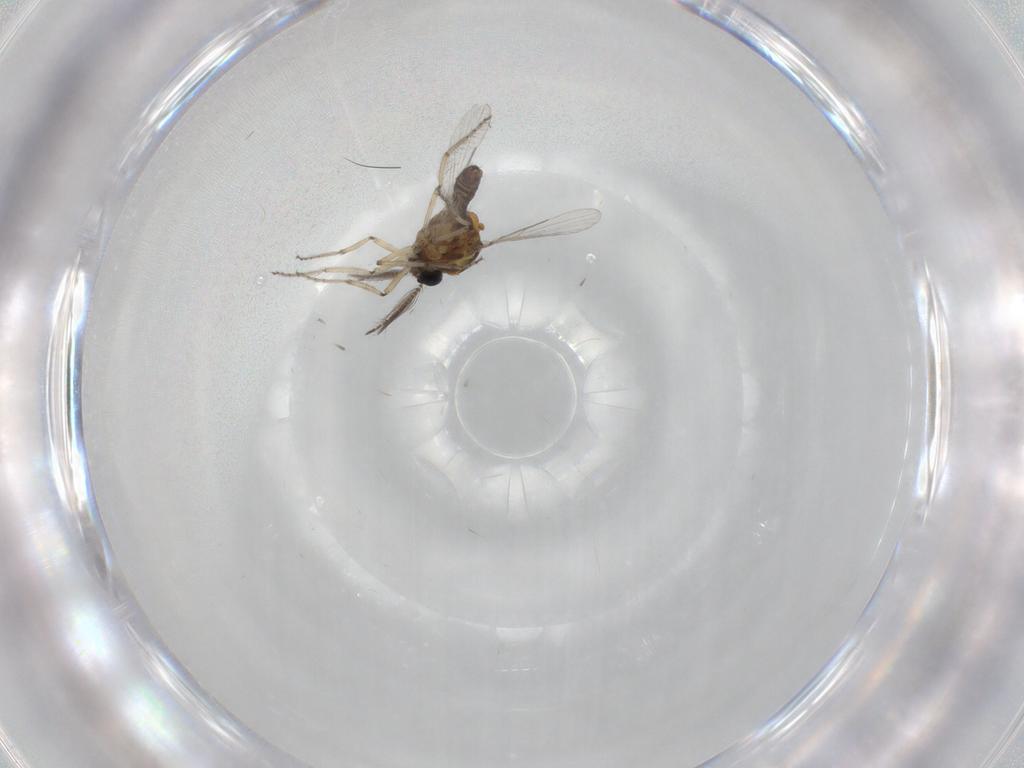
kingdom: Animalia
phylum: Arthropoda
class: Insecta
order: Diptera
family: Ceratopogonidae
